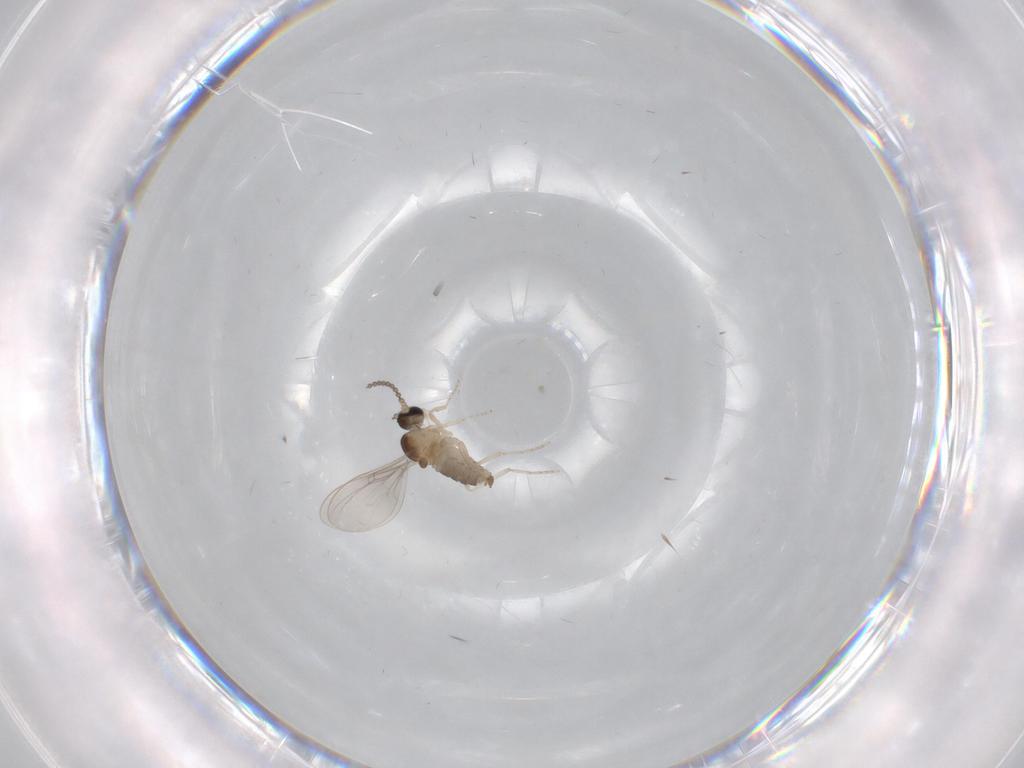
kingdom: Animalia
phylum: Arthropoda
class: Insecta
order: Diptera
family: Cecidomyiidae
